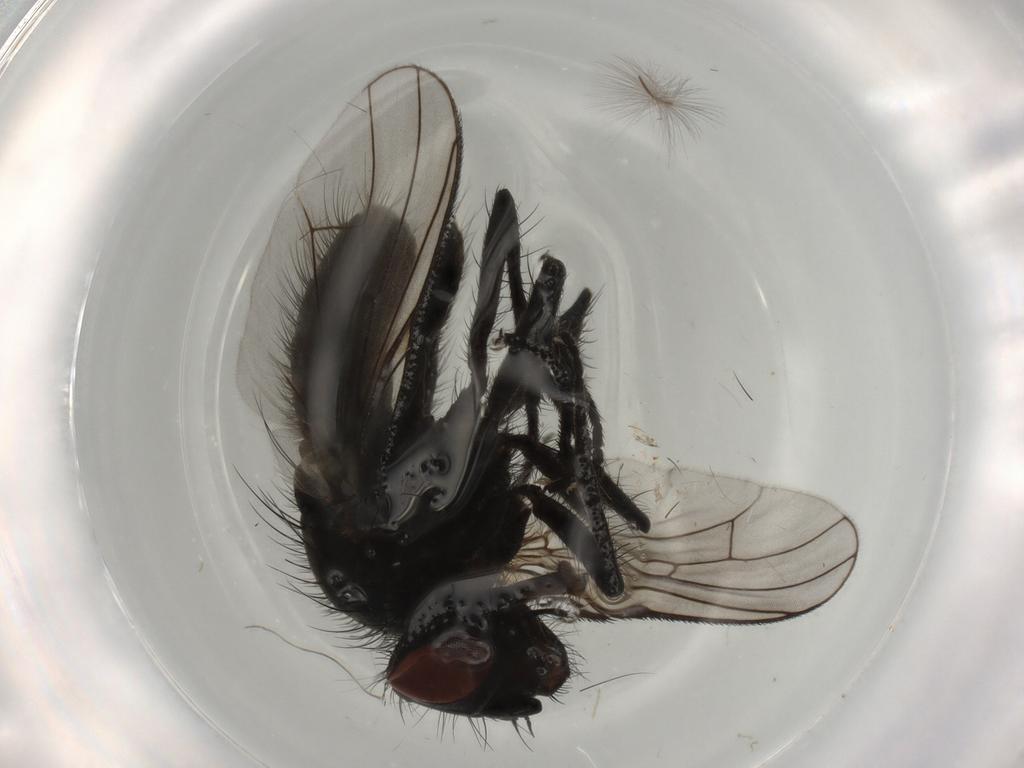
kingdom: Animalia
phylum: Arthropoda
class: Insecta
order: Diptera
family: Muscidae
